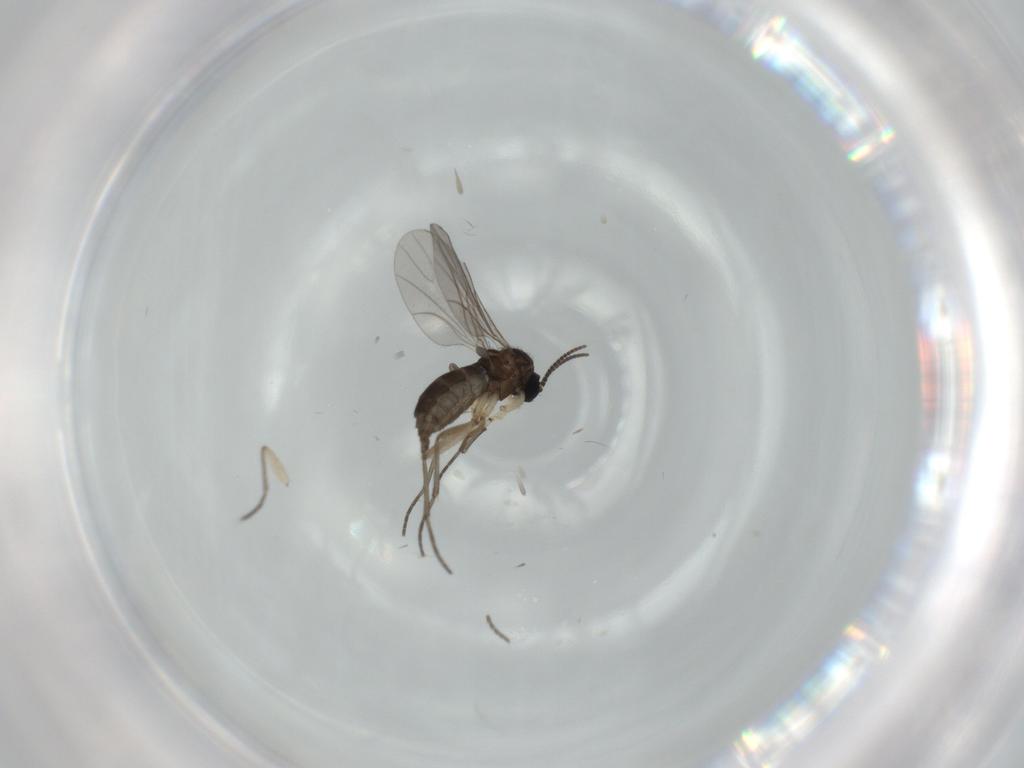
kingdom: Animalia
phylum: Arthropoda
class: Insecta
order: Diptera
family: Sciaridae
